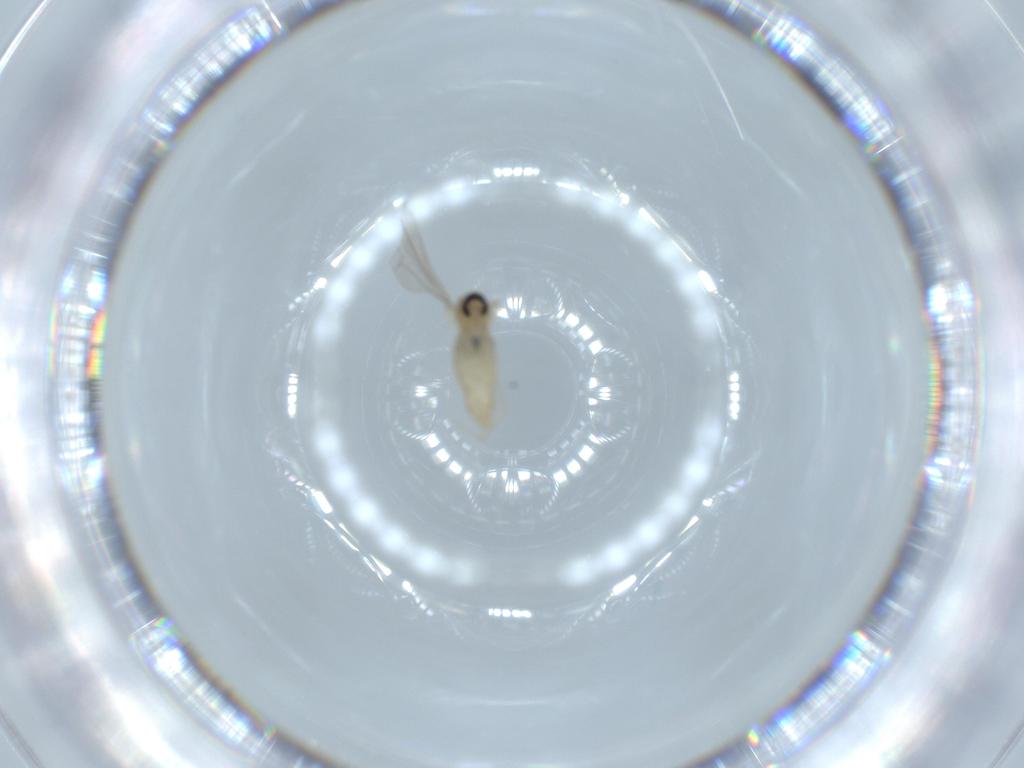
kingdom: Animalia
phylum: Arthropoda
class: Insecta
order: Diptera
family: Cecidomyiidae
